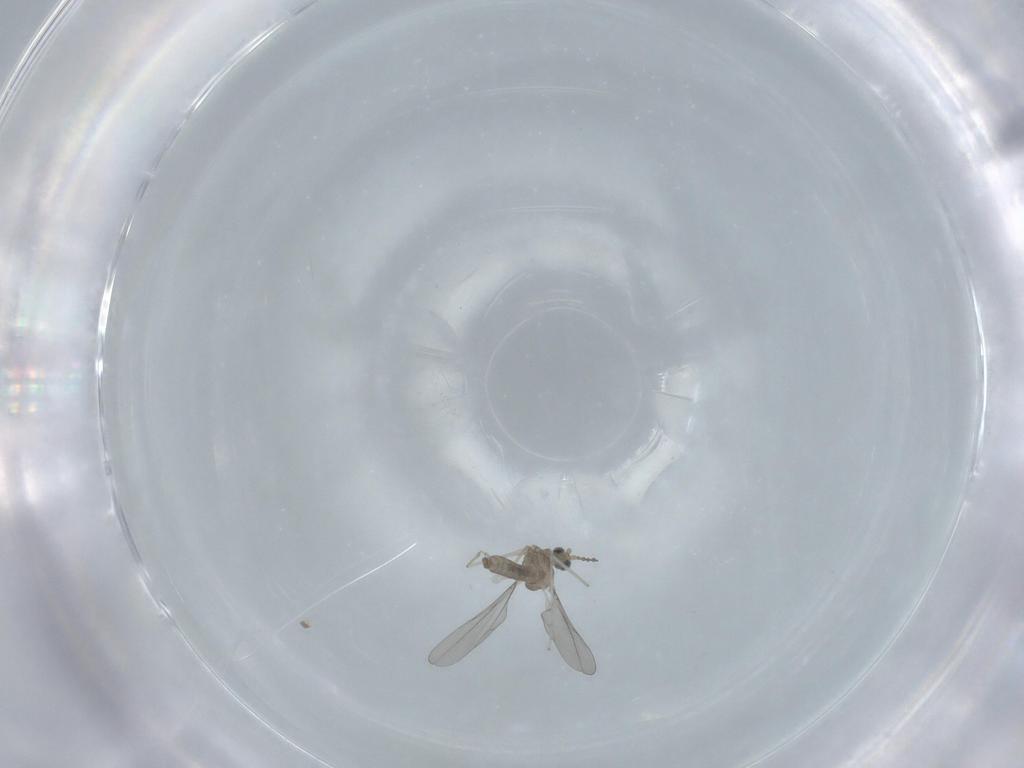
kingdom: Animalia
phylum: Arthropoda
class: Insecta
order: Diptera
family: Cecidomyiidae
